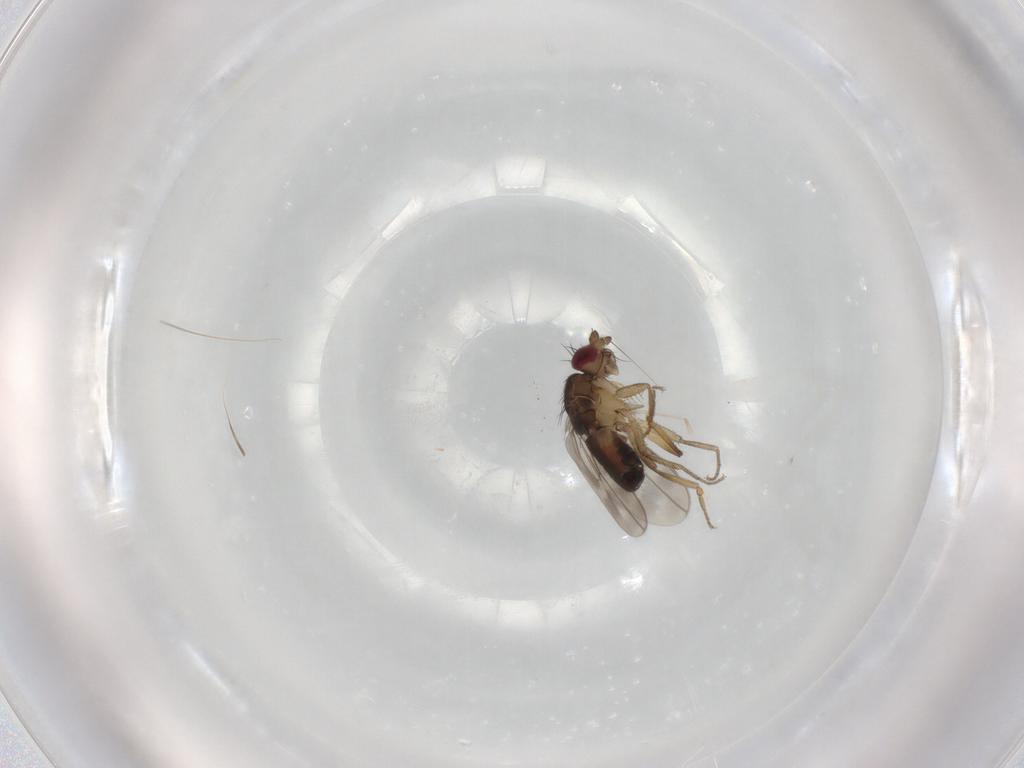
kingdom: Animalia
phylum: Arthropoda
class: Insecta
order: Diptera
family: Sphaeroceridae
